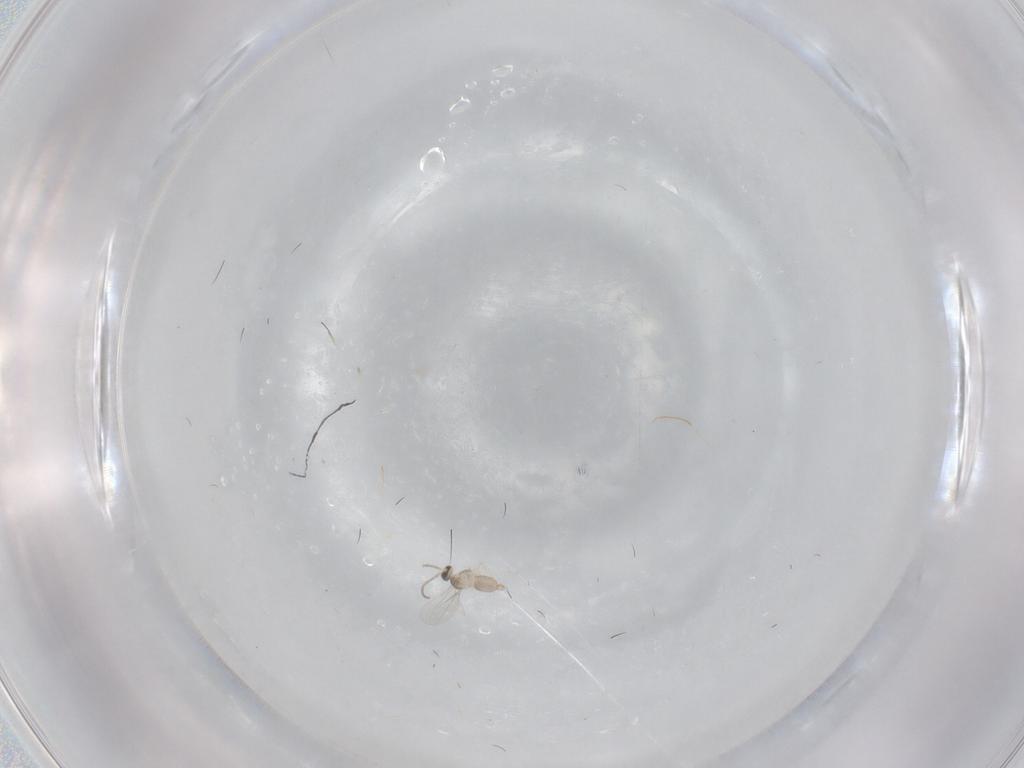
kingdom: Animalia
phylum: Arthropoda
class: Insecta
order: Diptera
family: Cecidomyiidae
